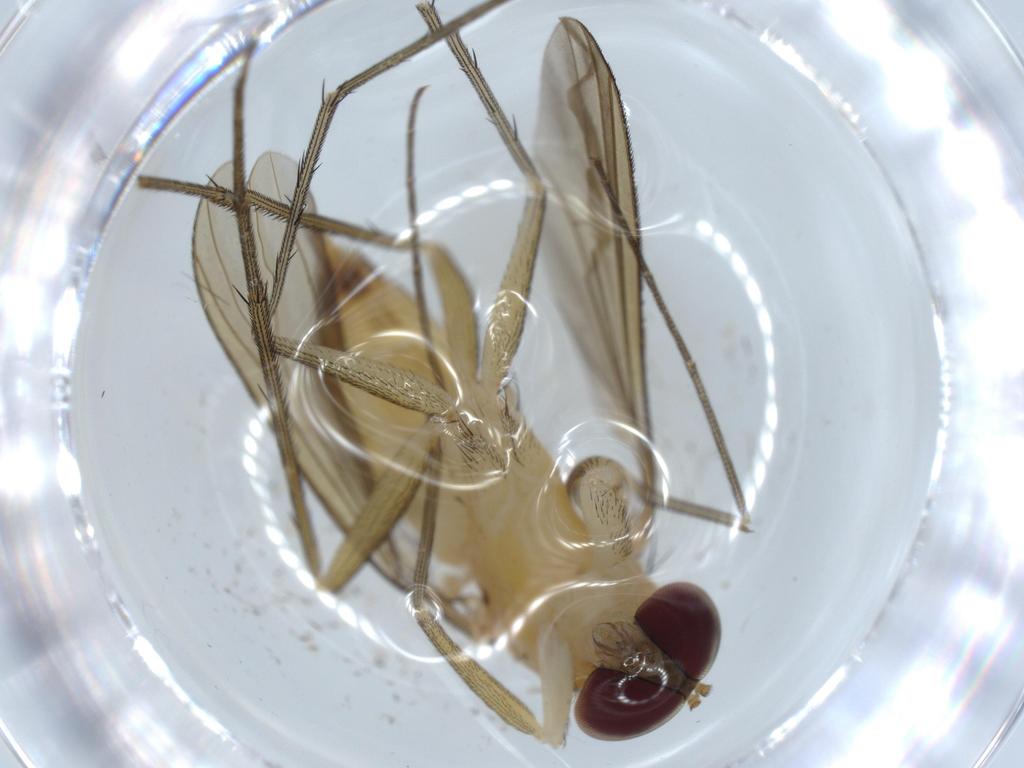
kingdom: Animalia
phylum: Arthropoda
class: Insecta
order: Diptera
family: Dolichopodidae
